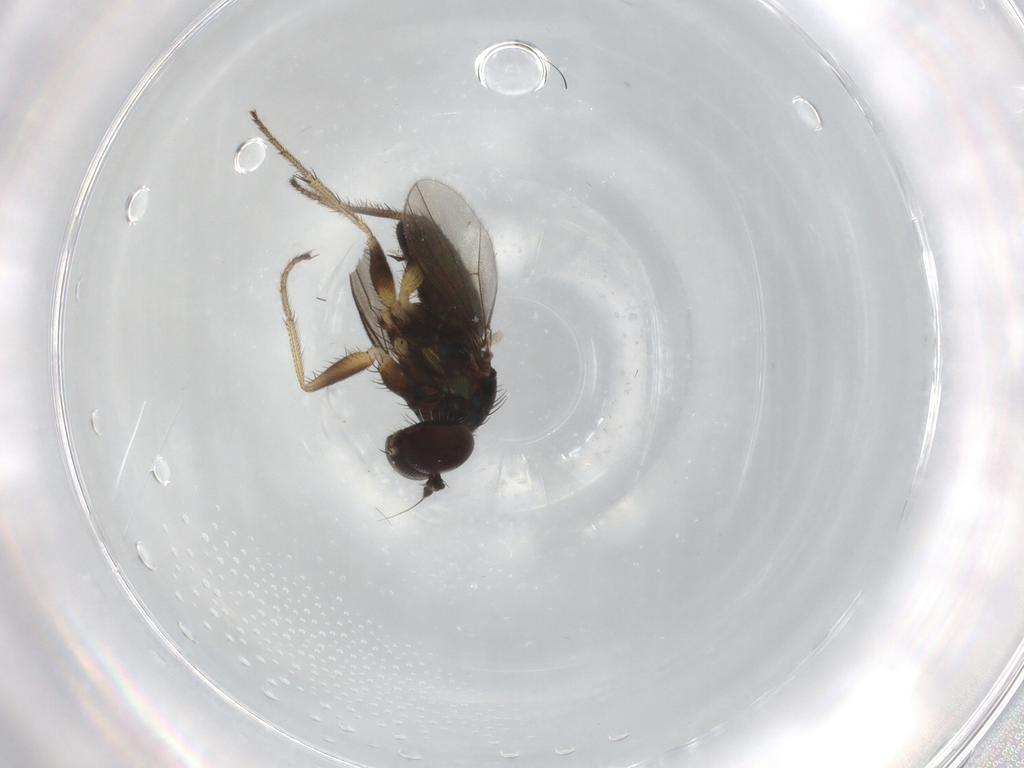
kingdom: Animalia
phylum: Arthropoda
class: Insecta
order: Diptera
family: Dolichopodidae
